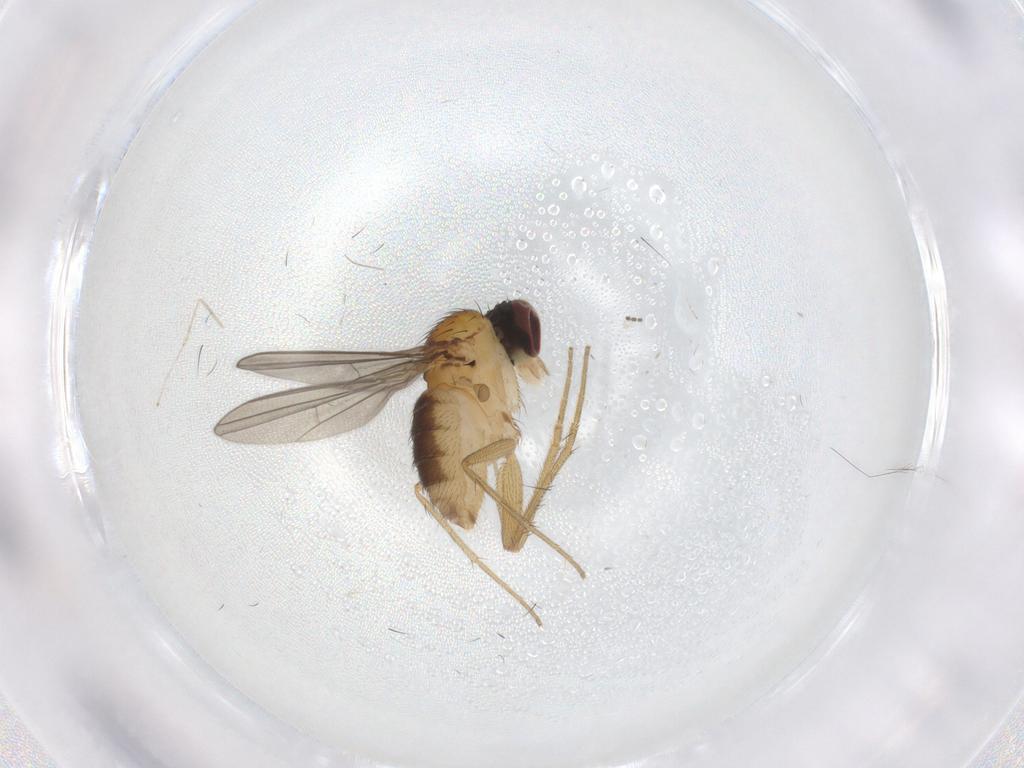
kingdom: Animalia
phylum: Arthropoda
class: Insecta
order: Diptera
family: Dolichopodidae
